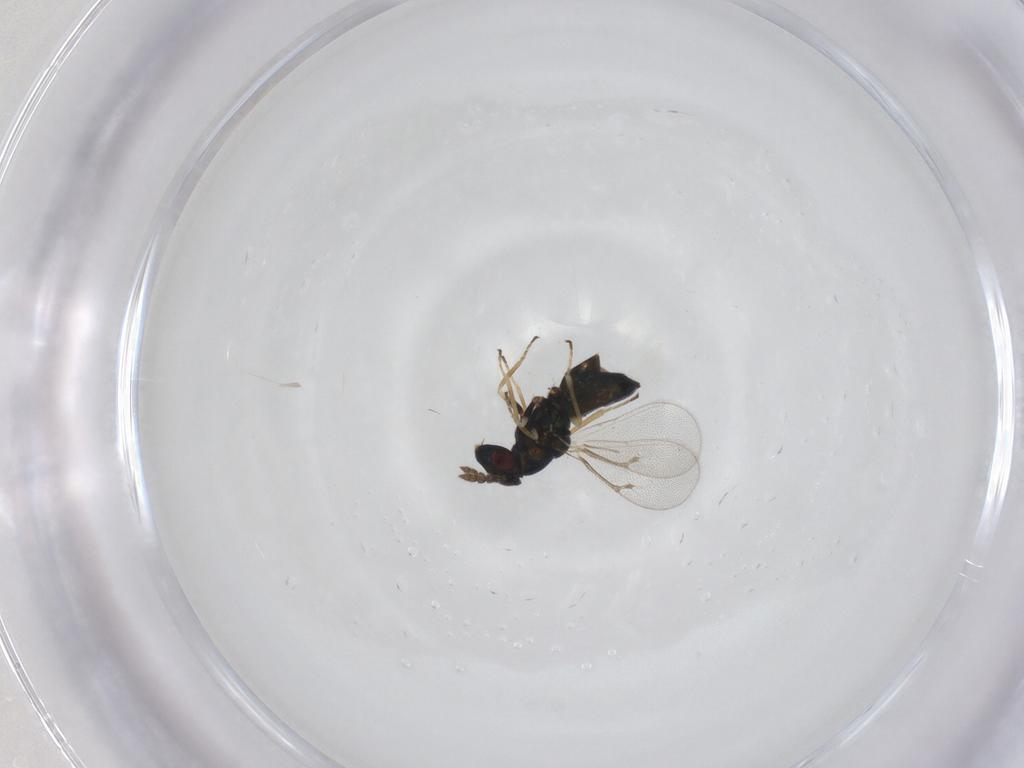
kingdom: Animalia
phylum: Arthropoda
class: Insecta
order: Hymenoptera
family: Eulophidae
